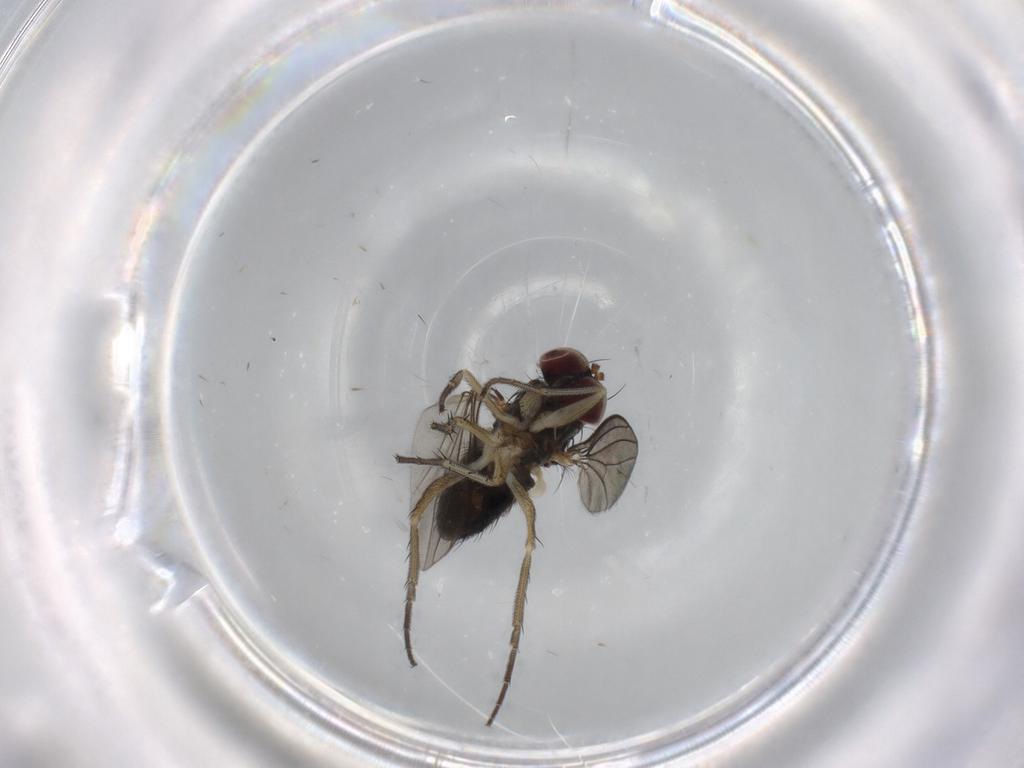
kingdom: Animalia
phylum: Arthropoda
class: Insecta
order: Diptera
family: Dolichopodidae
